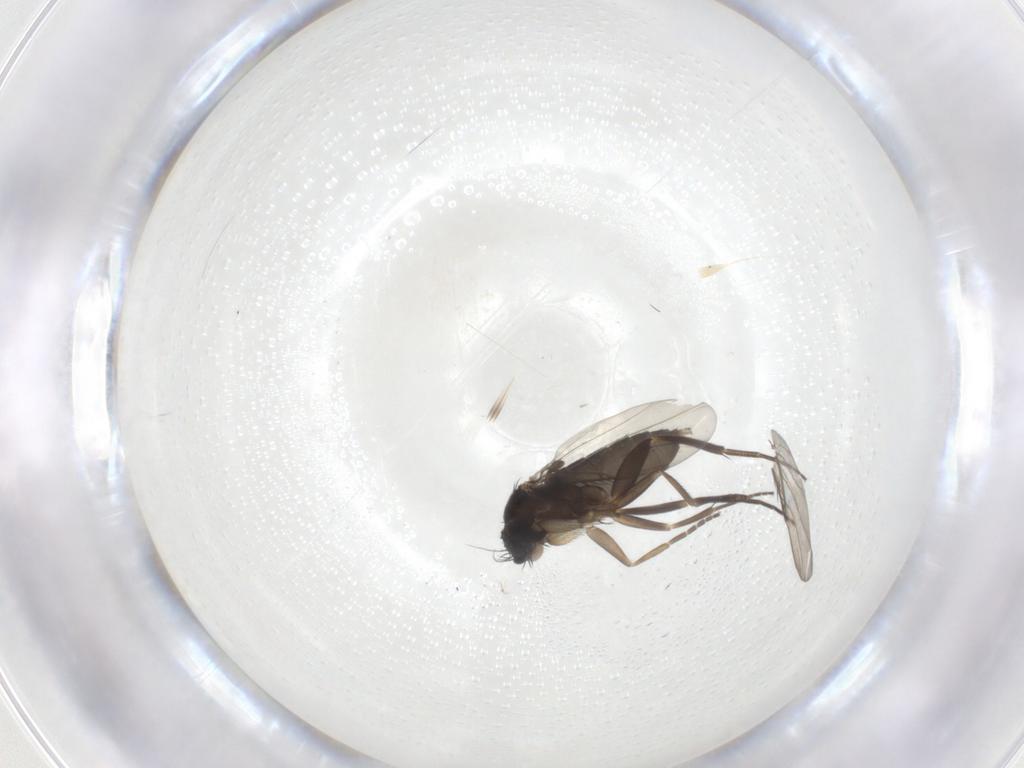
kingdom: Animalia
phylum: Arthropoda
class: Insecta
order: Diptera
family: Phoridae
